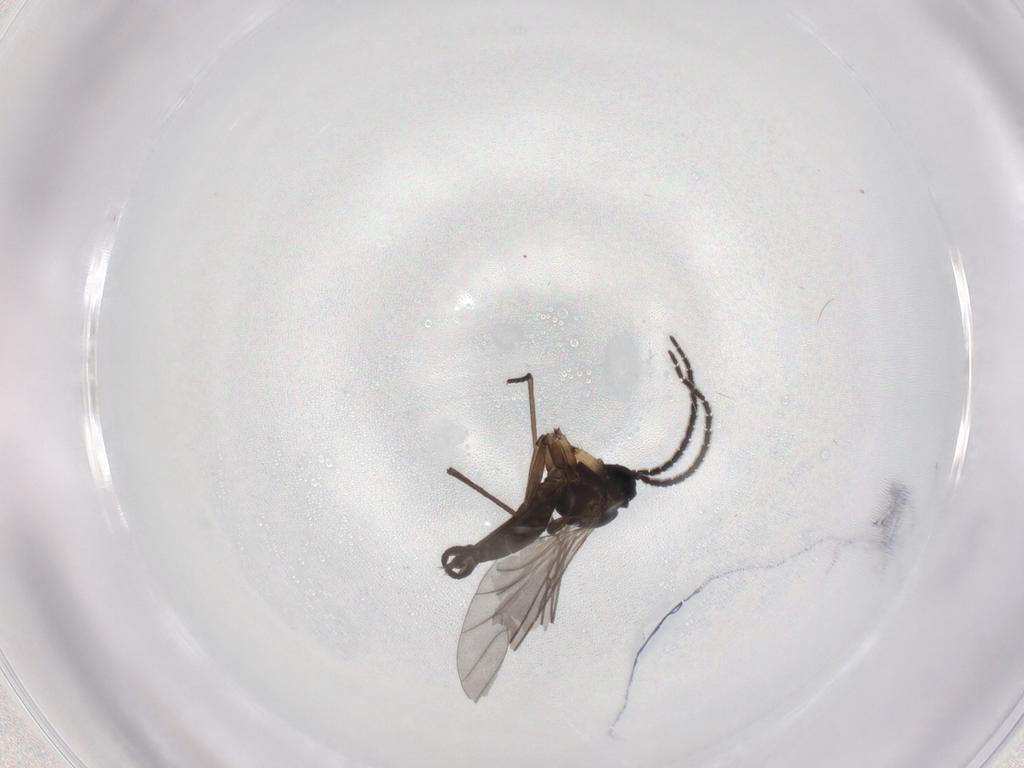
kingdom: Animalia
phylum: Arthropoda
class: Insecta
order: Diptera
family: Sciaridae
